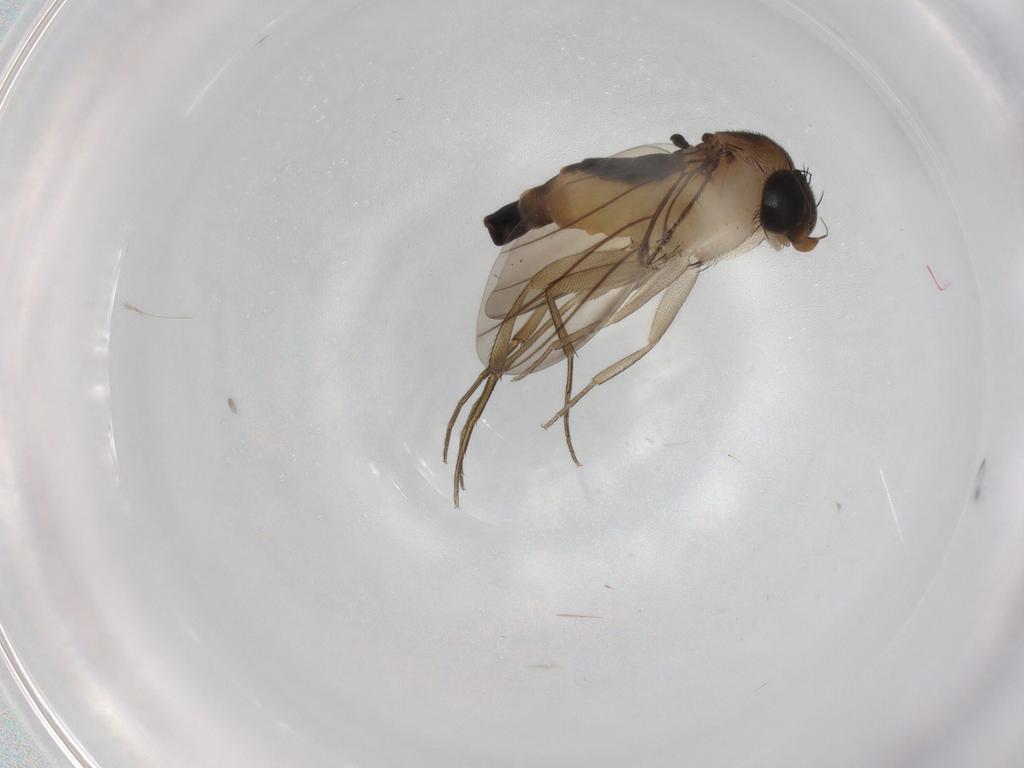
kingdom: Animalia
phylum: Arthropoda
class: Insecta
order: Diptera
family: Phoridae
